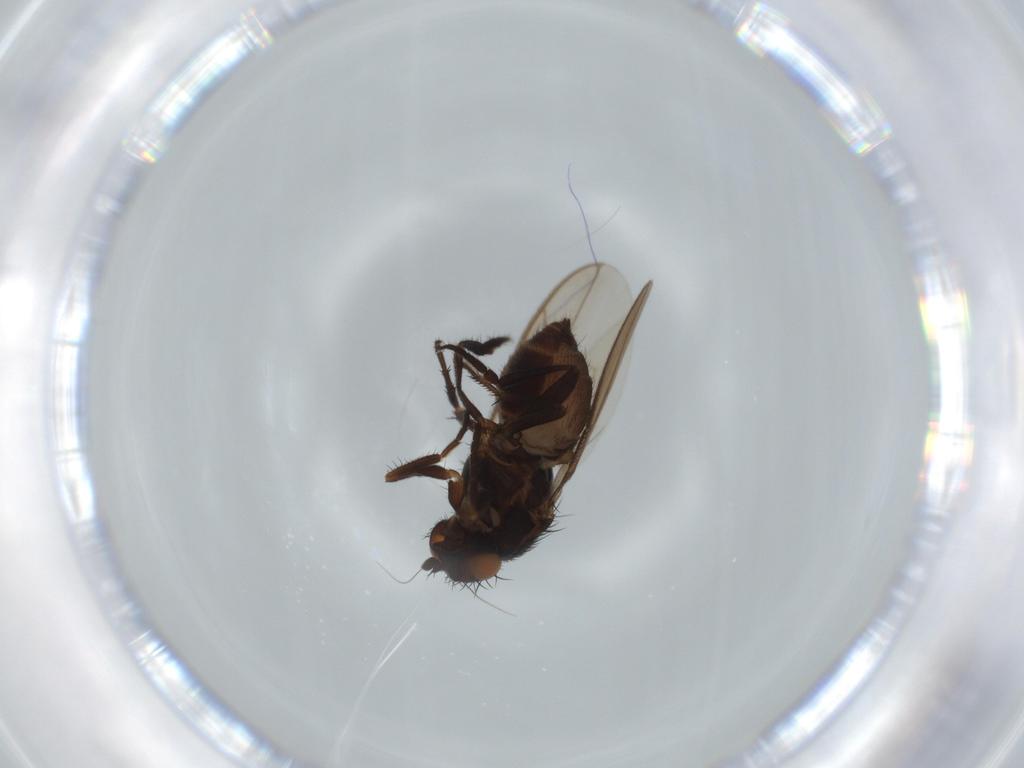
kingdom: Animalia
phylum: Arthropoda
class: Insecta
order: Diptera
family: Sphaeroceridae
